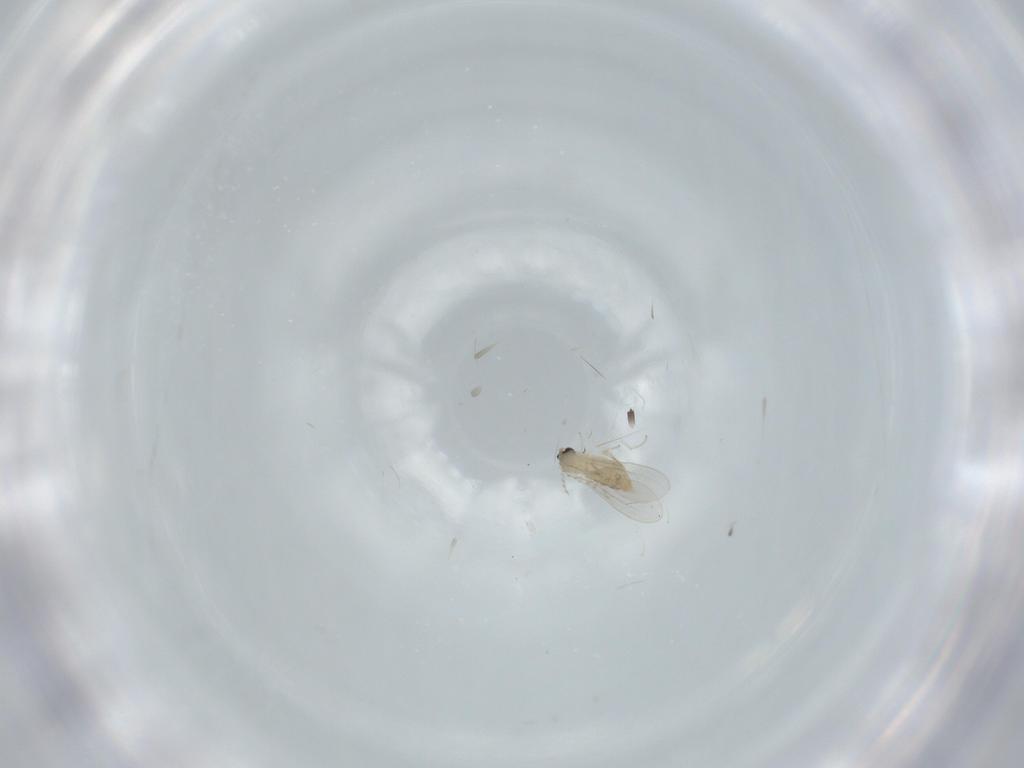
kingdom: Animalia
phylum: Arthropoda
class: Insecta
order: Diptera
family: Cecidomyiidae
